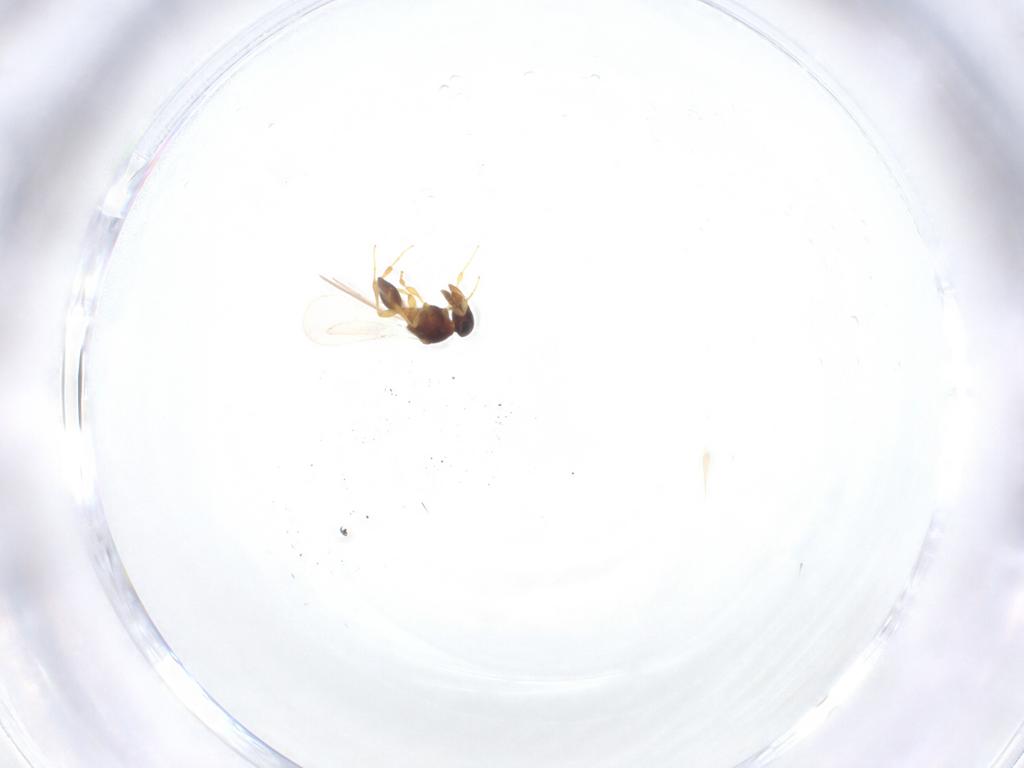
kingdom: Animalia
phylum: Arthropoda
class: Insecta
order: Hymenoptera
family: Platygastridae
